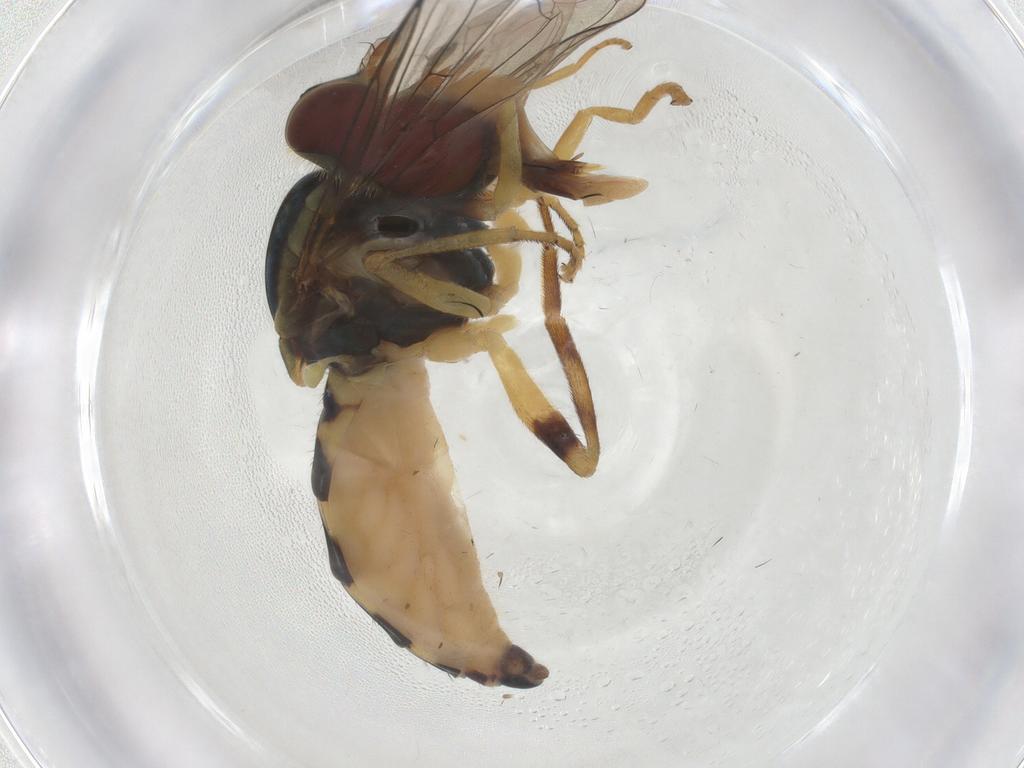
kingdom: Animalia
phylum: Arthropoda
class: Insecta
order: Diptera
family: Syrphidae
